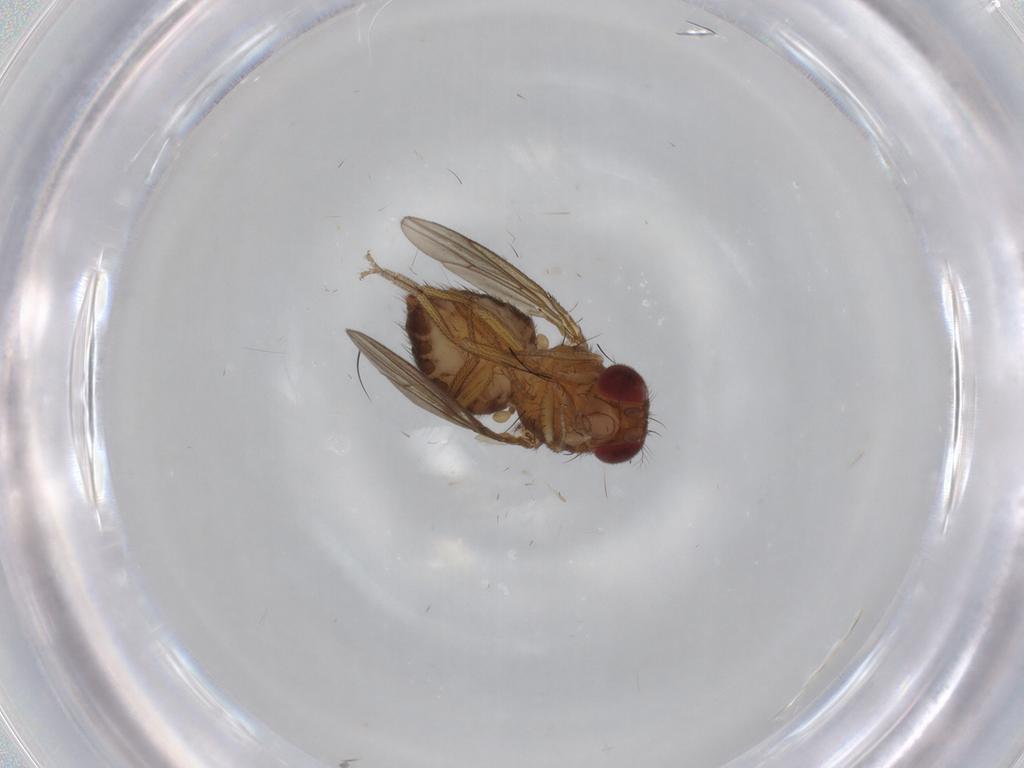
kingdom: Animalia
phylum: Arthropoda
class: Insecta
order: Diptera
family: Drosophilidae
